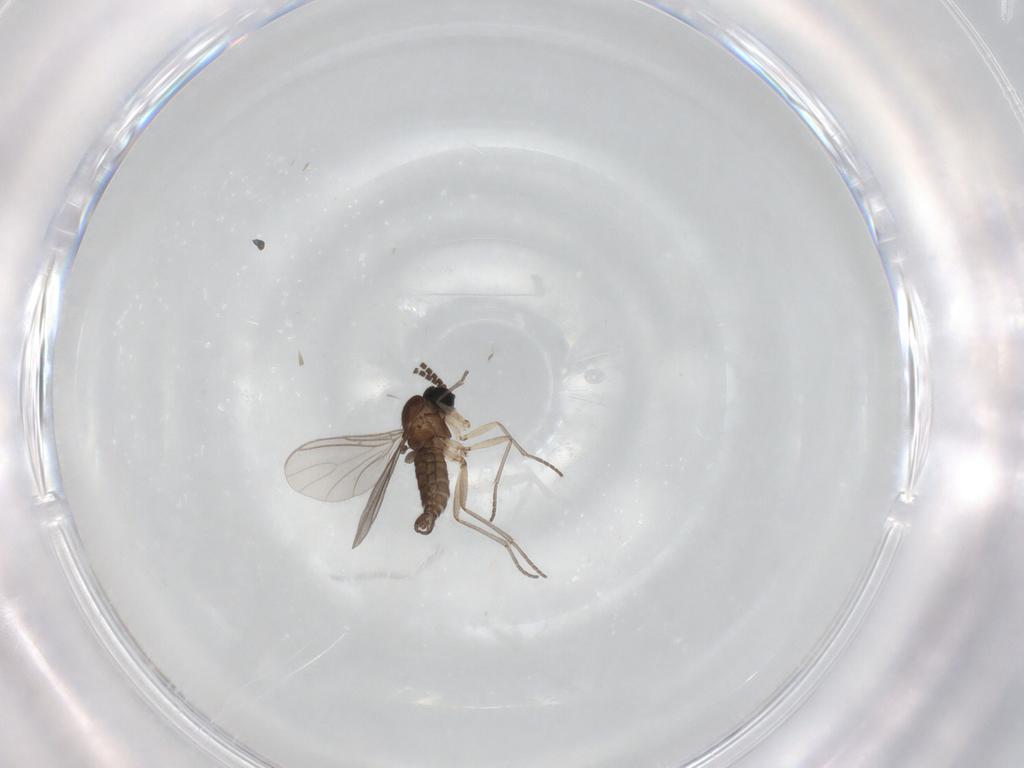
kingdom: Animalia
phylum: Arthropoda
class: Insecta
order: Diptera
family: Sciaridae
